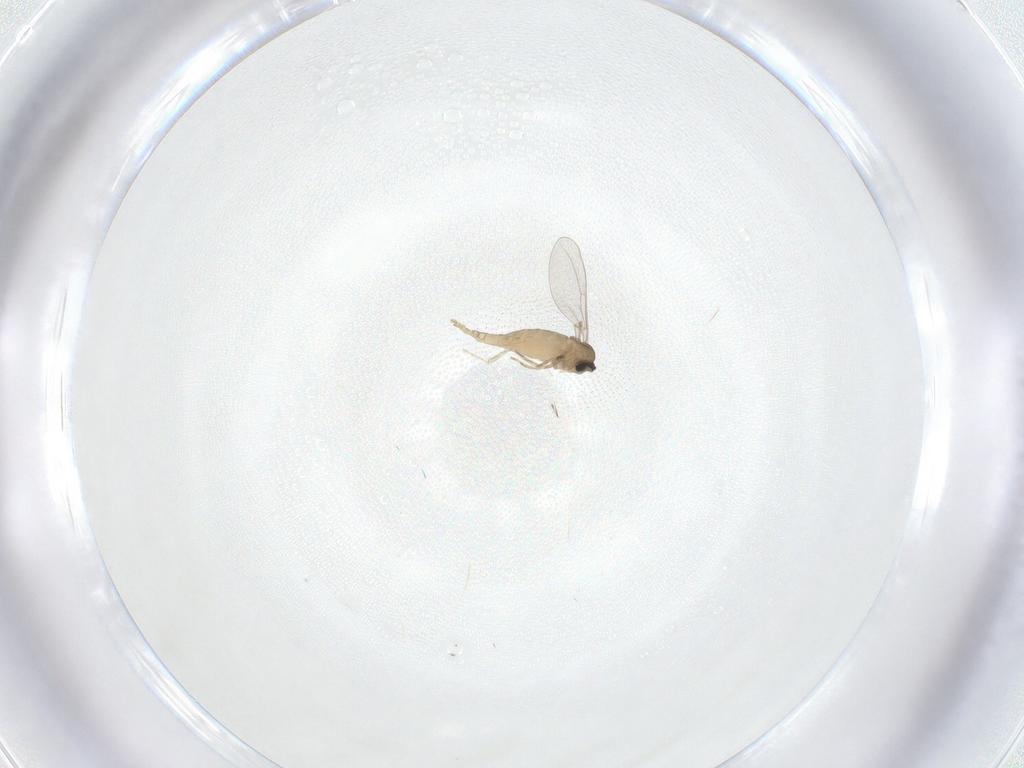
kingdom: Animalia
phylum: Arthropoda
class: Insecta
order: Diptera
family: Cecidomyiidae
